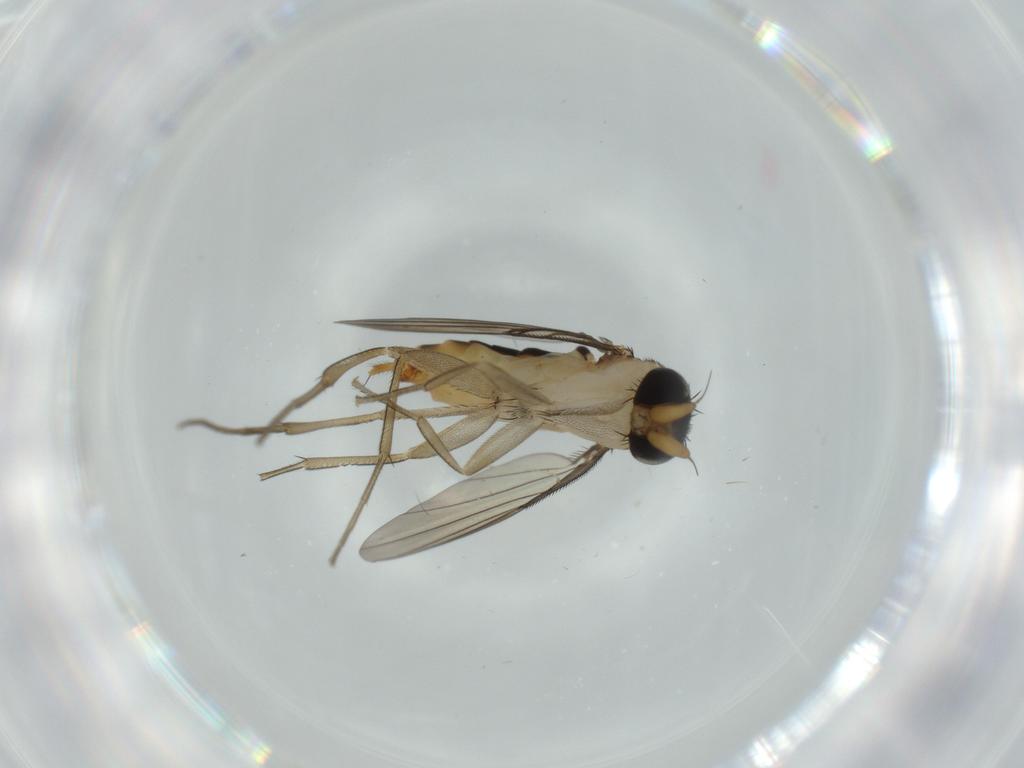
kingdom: Animalia
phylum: Arthropoda
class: Insecta
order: Diptera
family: Phoridae
